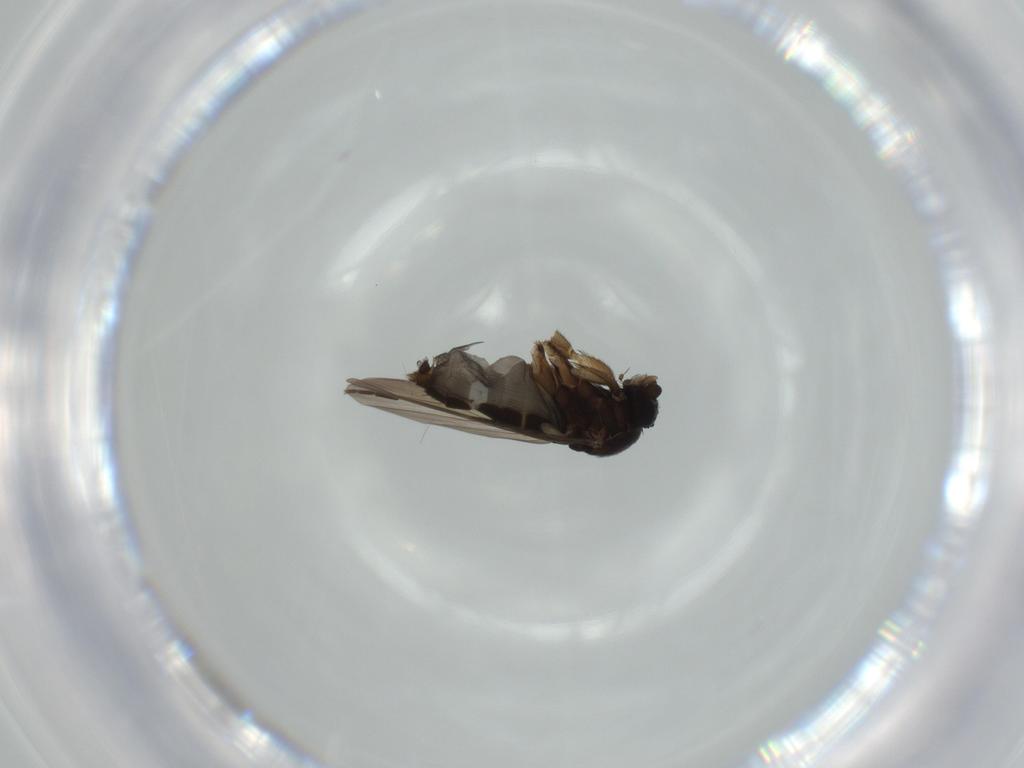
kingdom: Animalia
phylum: Arthropoda
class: Insecta
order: Diptera
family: Phoridae
